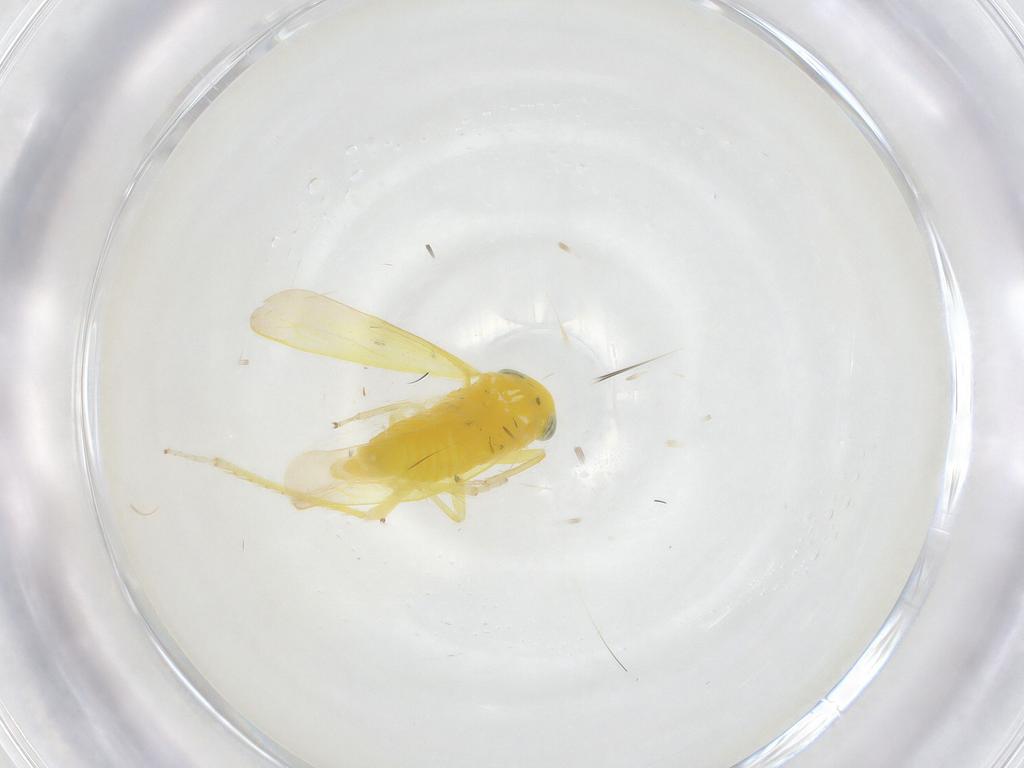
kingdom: Animalia
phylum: Arthropoda
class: Insecta
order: Hemiptera
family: Cicadellidae
